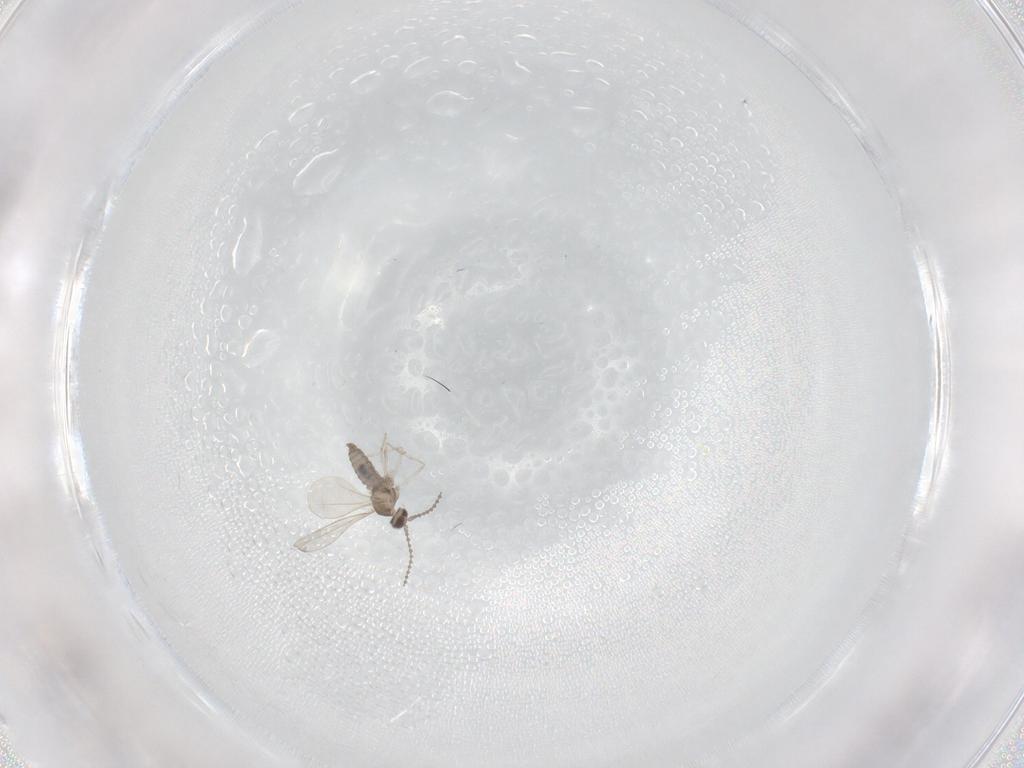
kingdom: Animalia
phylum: Arthropoda
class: Insecta
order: Diptera
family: Cecidomyiidae
